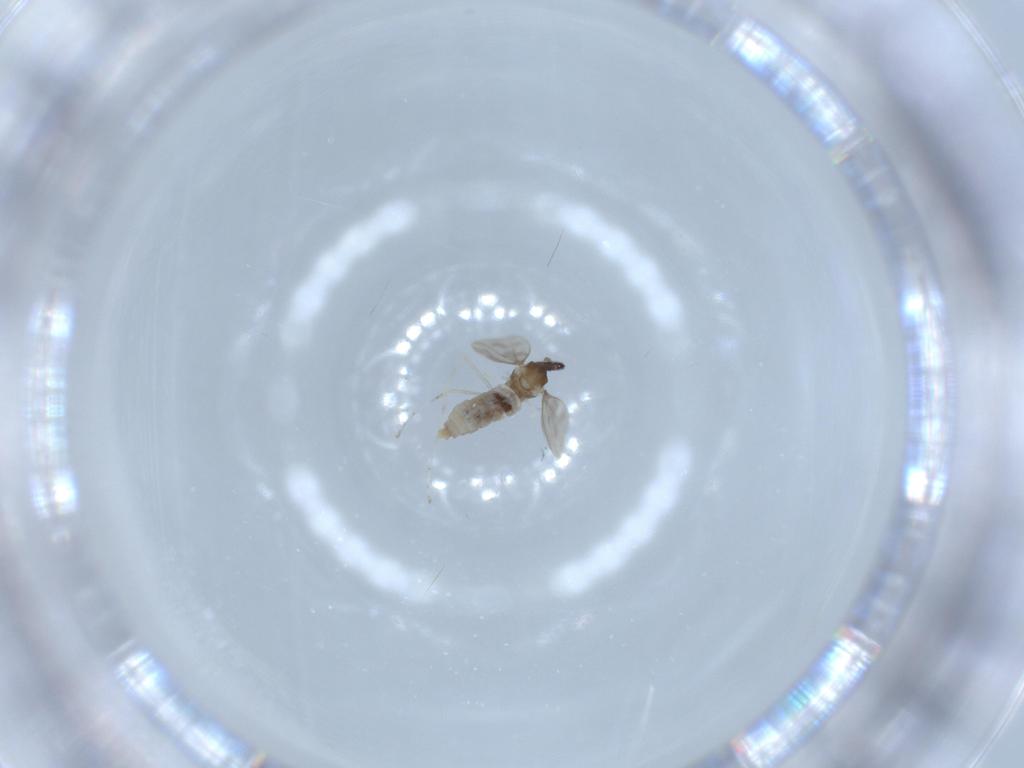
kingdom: Animalia
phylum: Arthropoda
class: Insecta
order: Diptera
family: Cecidomyiidae
